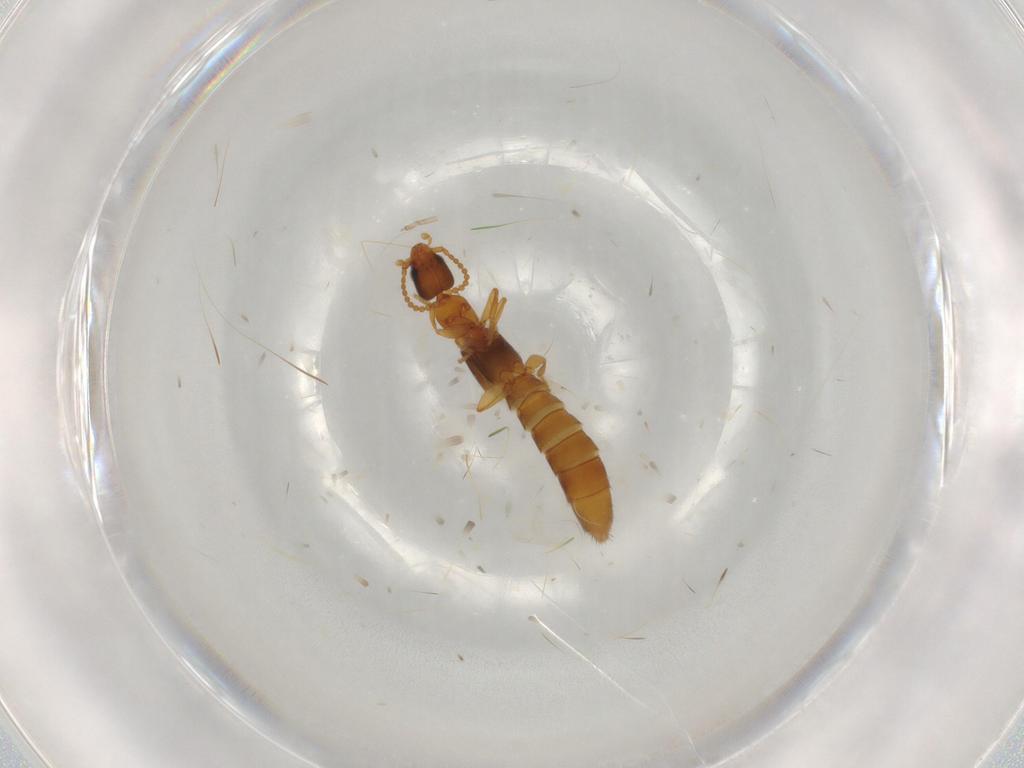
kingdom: Animalia
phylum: Arthropoda
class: Insecta
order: Coleoptera
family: Staphylinidae
